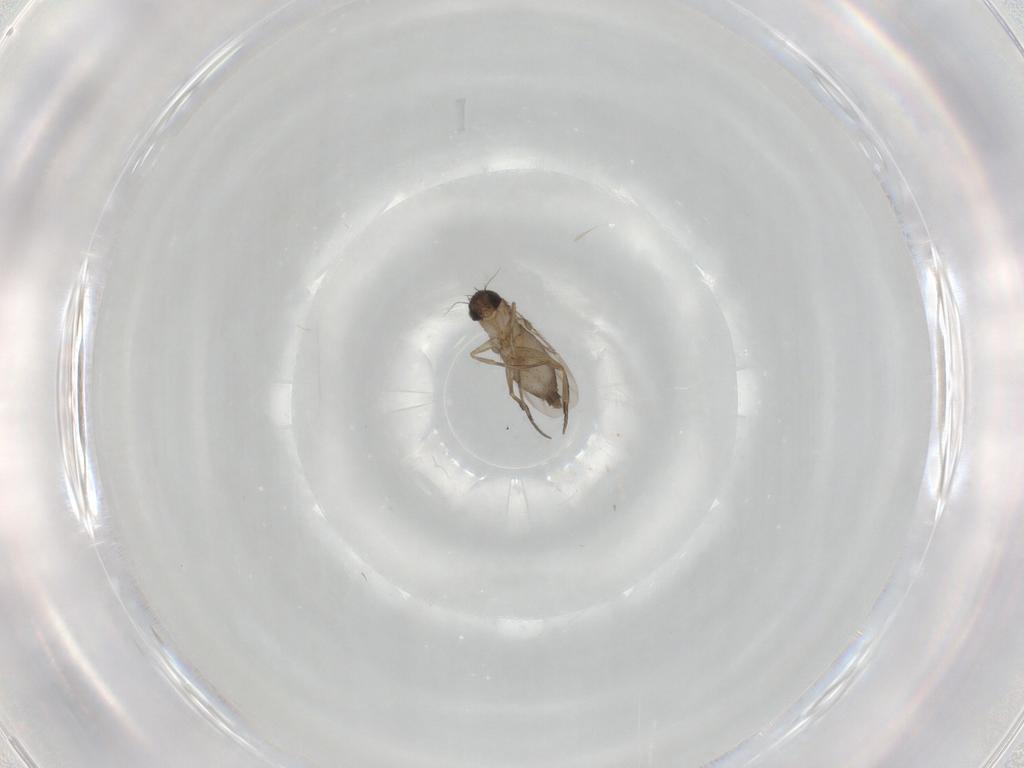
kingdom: Animalia
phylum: Arthropoda
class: Insecta
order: Diptera
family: Phoridae
